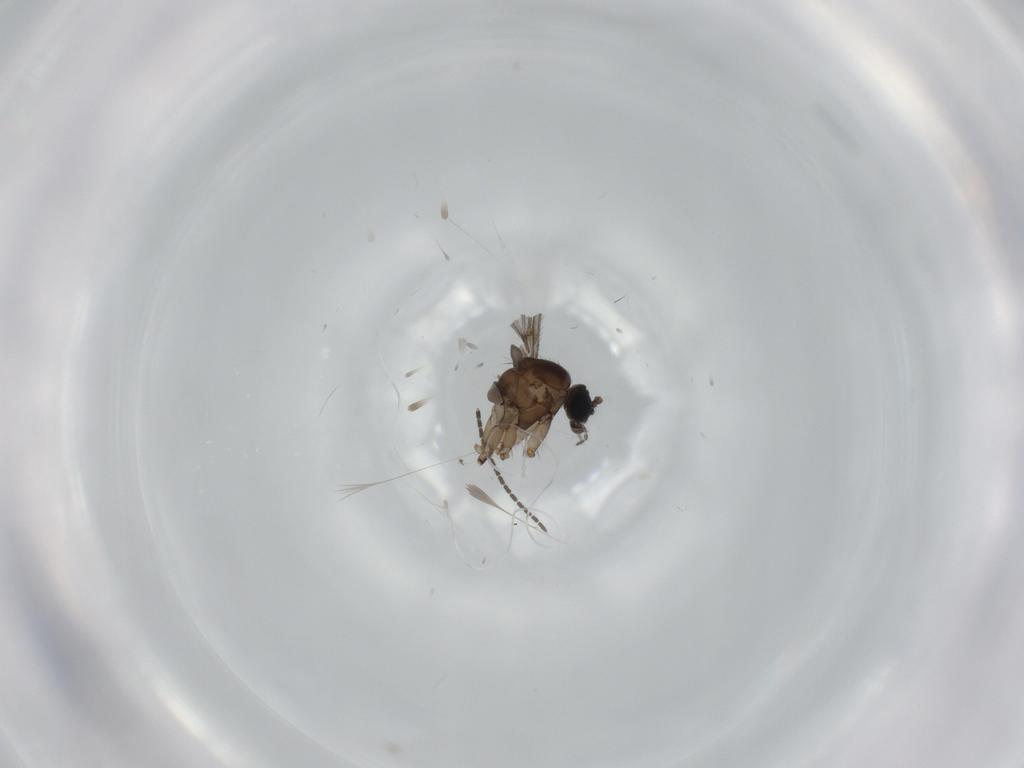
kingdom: Animalia
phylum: Arthropoda
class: Insecta
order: Diptera
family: Sciaridae
